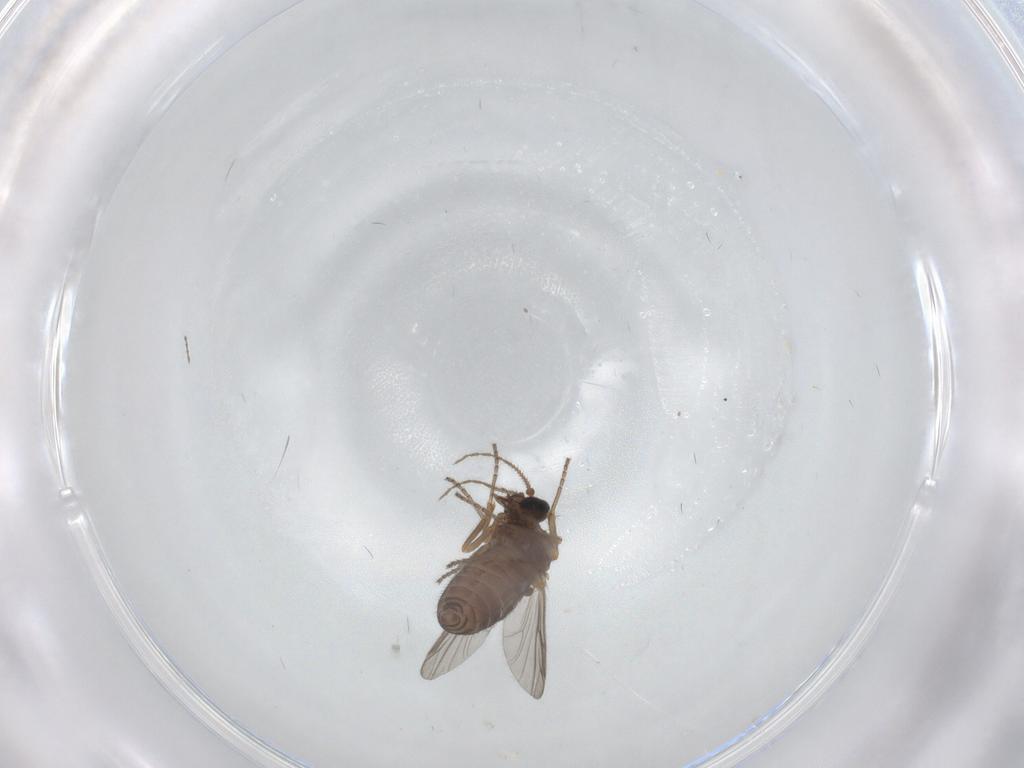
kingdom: Animalia
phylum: Arthropoda
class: Insecta
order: Diptera
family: Ceratopogonidae
